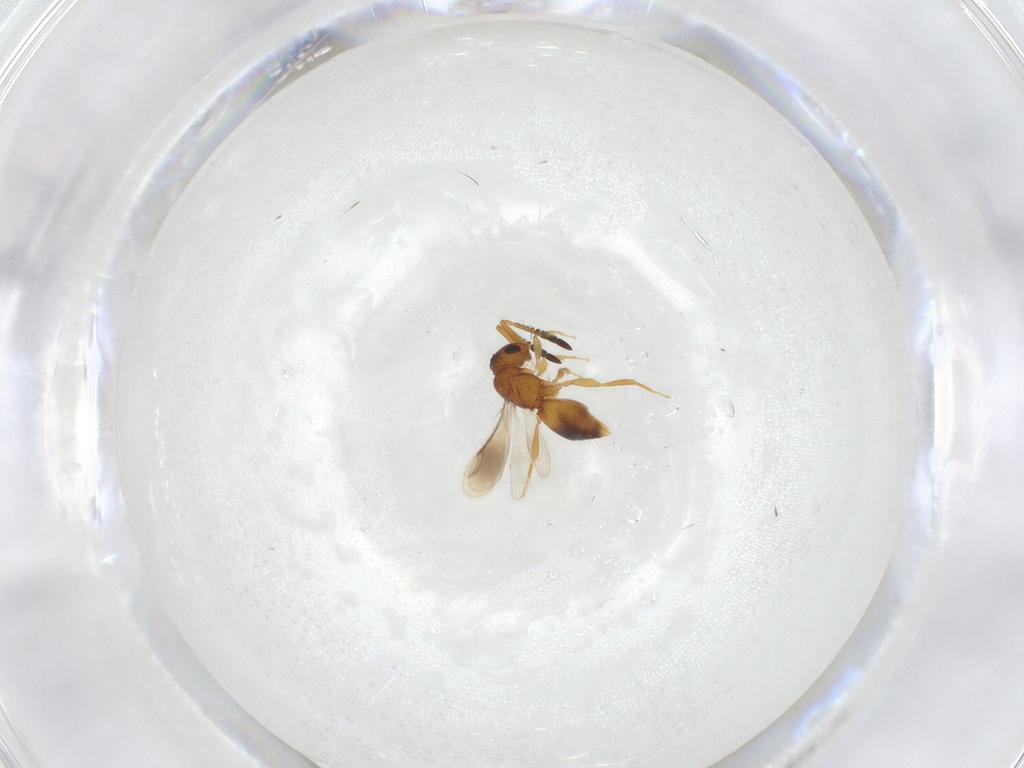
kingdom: Animalia
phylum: Arthropoda
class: Insecta
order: Hymenoptera
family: Ceraphronidae
